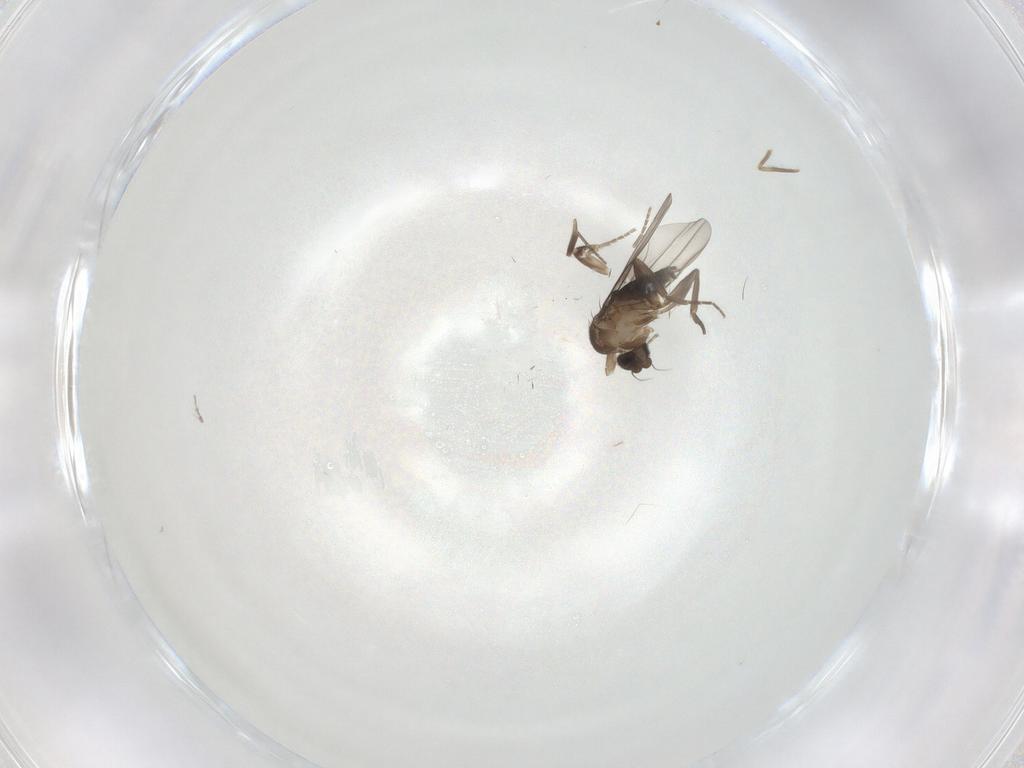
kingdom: Animalia
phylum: Arthropoda
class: Insecta
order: Diptera
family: Chironomidae
